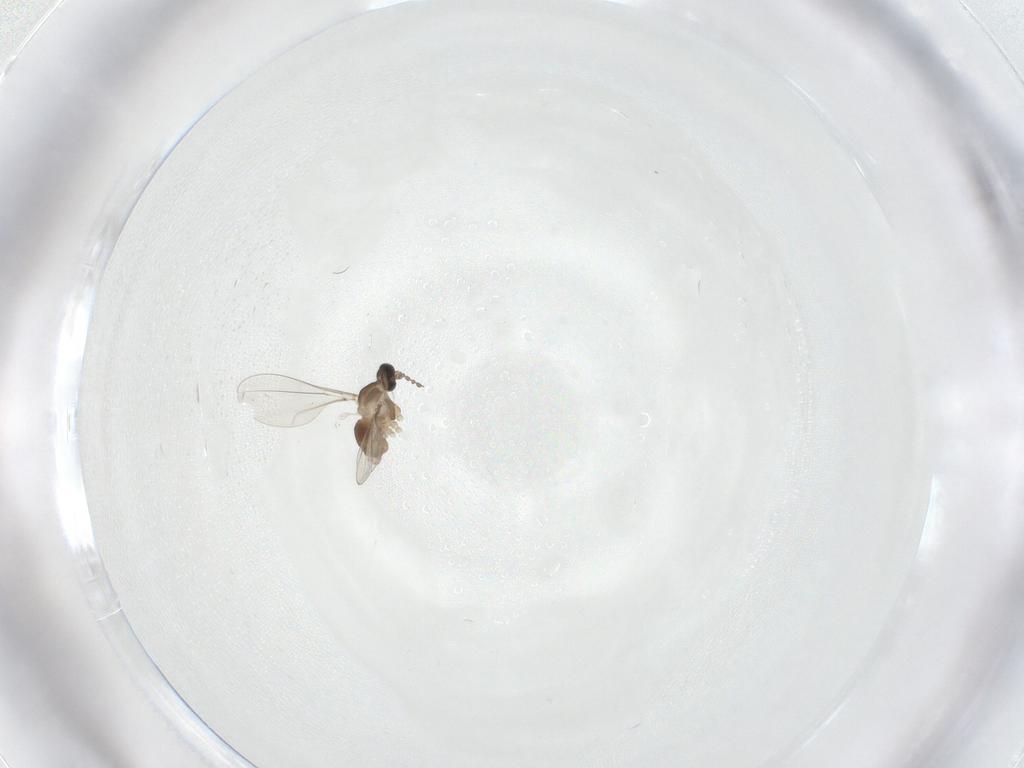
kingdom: Animalia
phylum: Arthropoda
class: Insecta
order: Diptera
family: Cecidomyiidae
